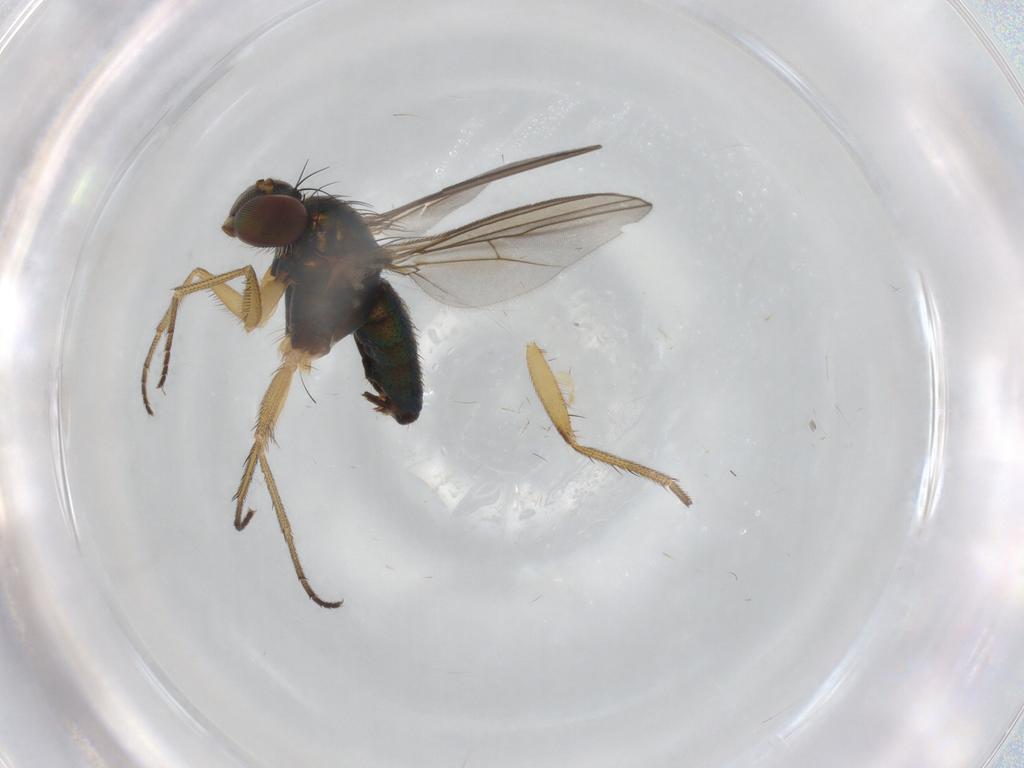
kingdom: Animalia
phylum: Arthropoda
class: Insecta
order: Diptera
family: Dolichopodidae
